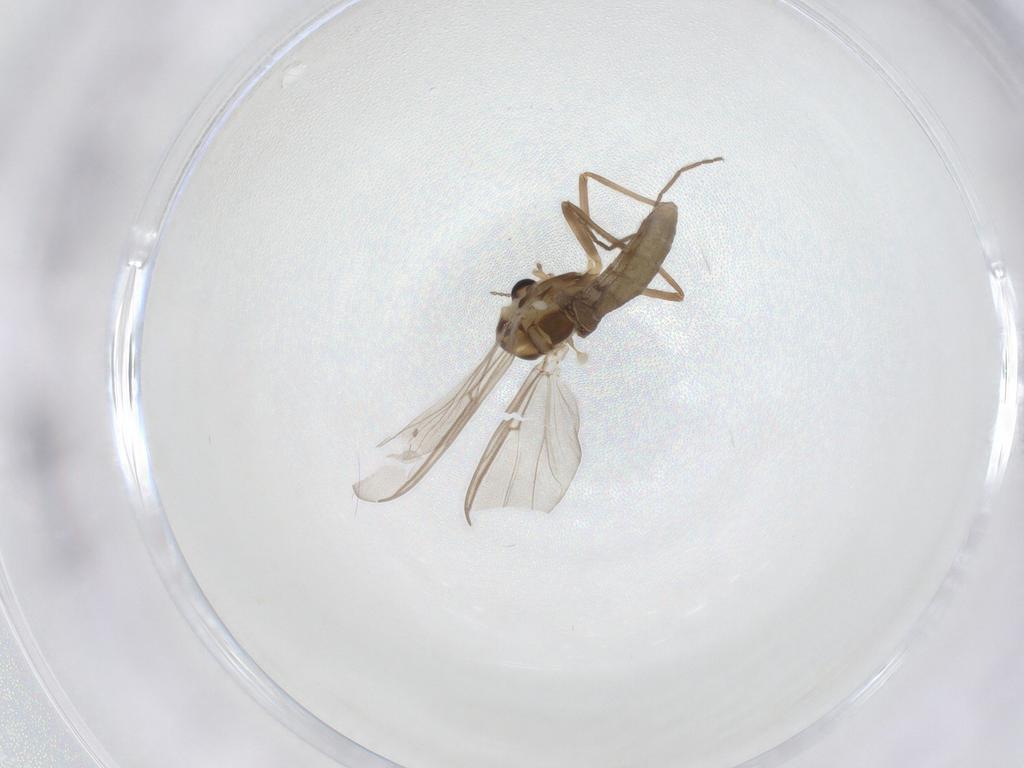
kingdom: Animalia
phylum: Arthropoda
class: Insecta
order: Diptera
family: Chironomidae
